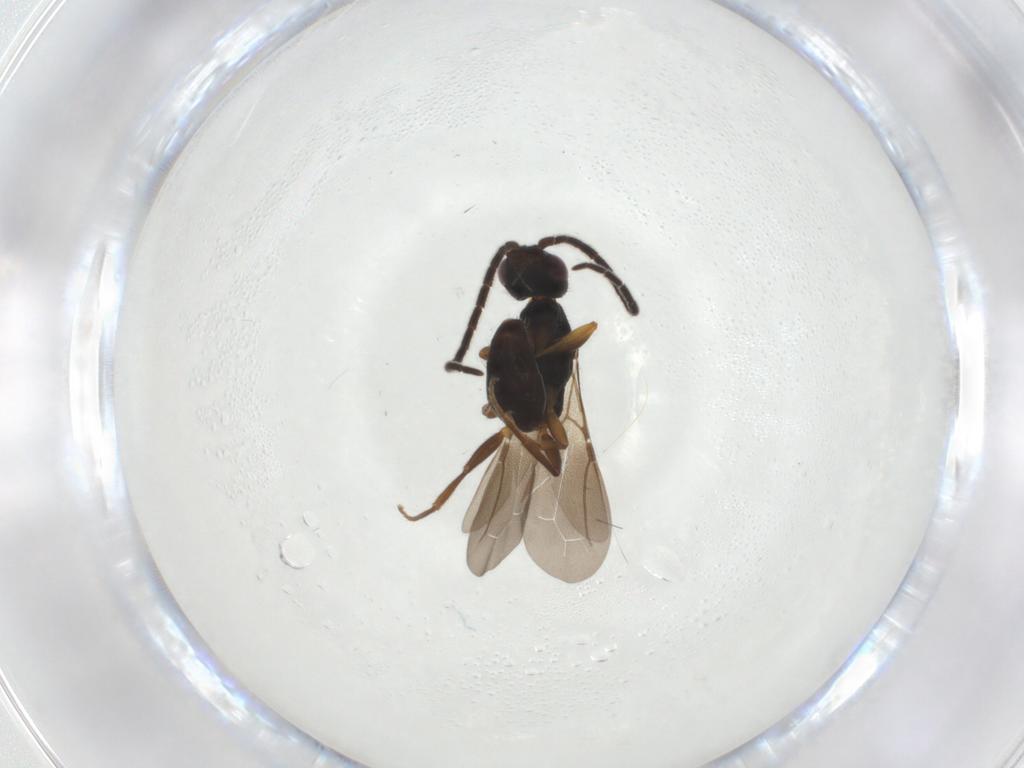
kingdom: Animalia
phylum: Arthropoda
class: Insecta
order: Hymenoptera
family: Bethylidae
